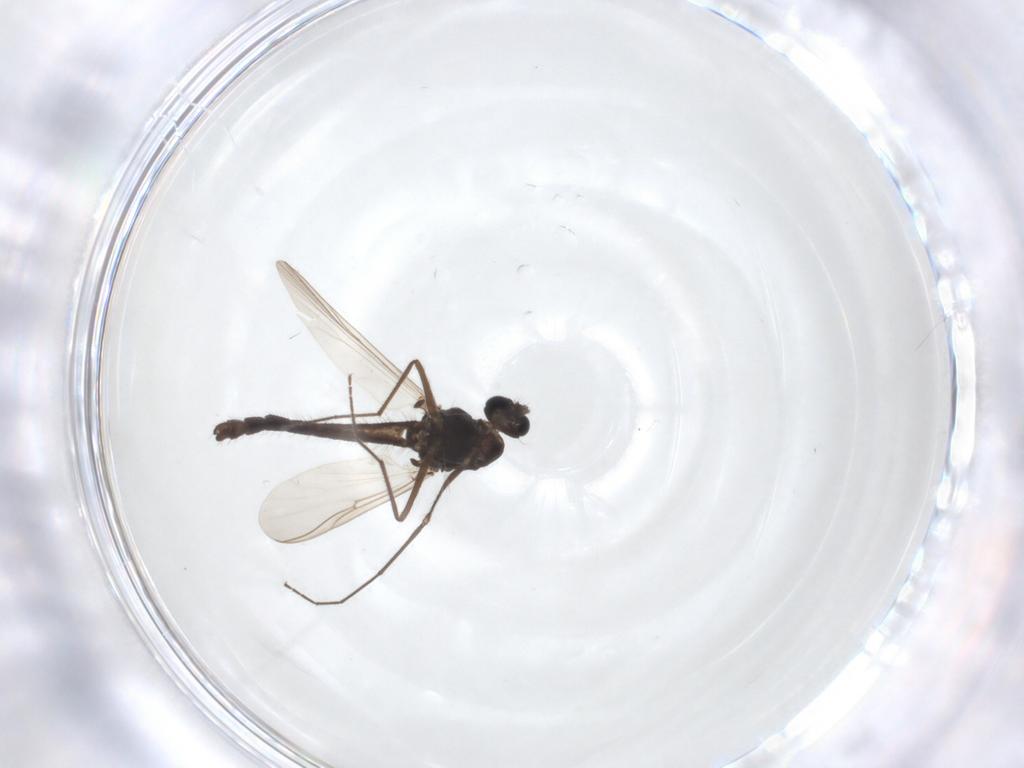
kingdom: Animalia
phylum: Arthropoda
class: Insecta
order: Diptera
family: Chironomidae
